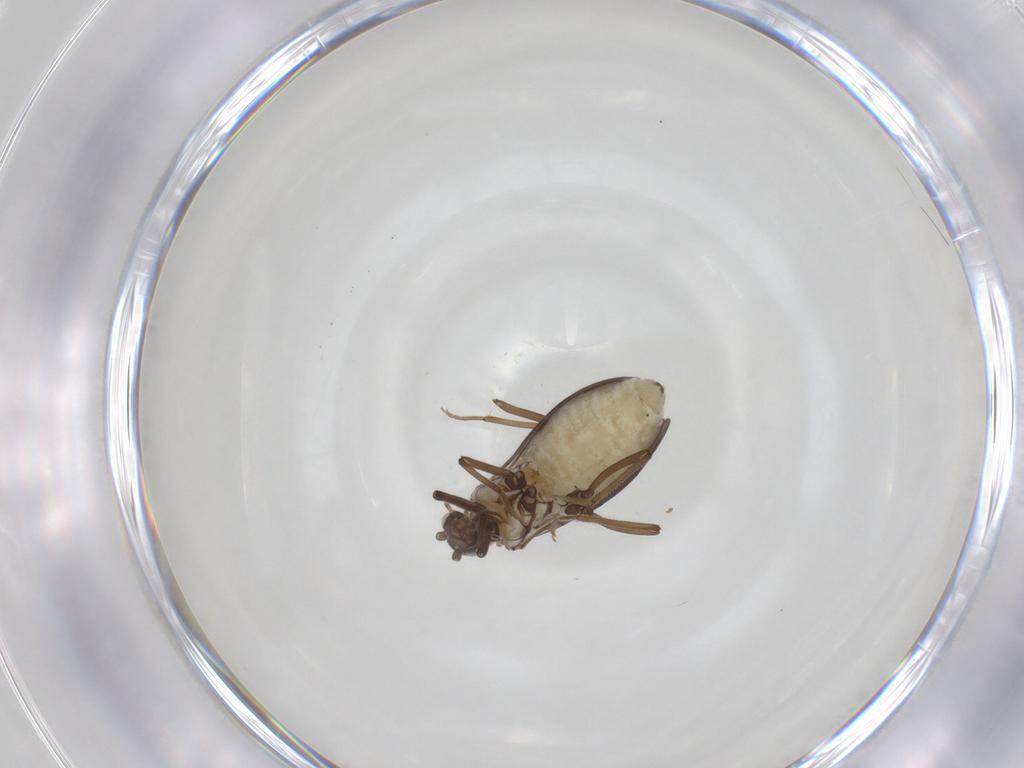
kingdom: Animalia
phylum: Arthropoda
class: Insecta
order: Neuroptera
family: Coniopterygidae
